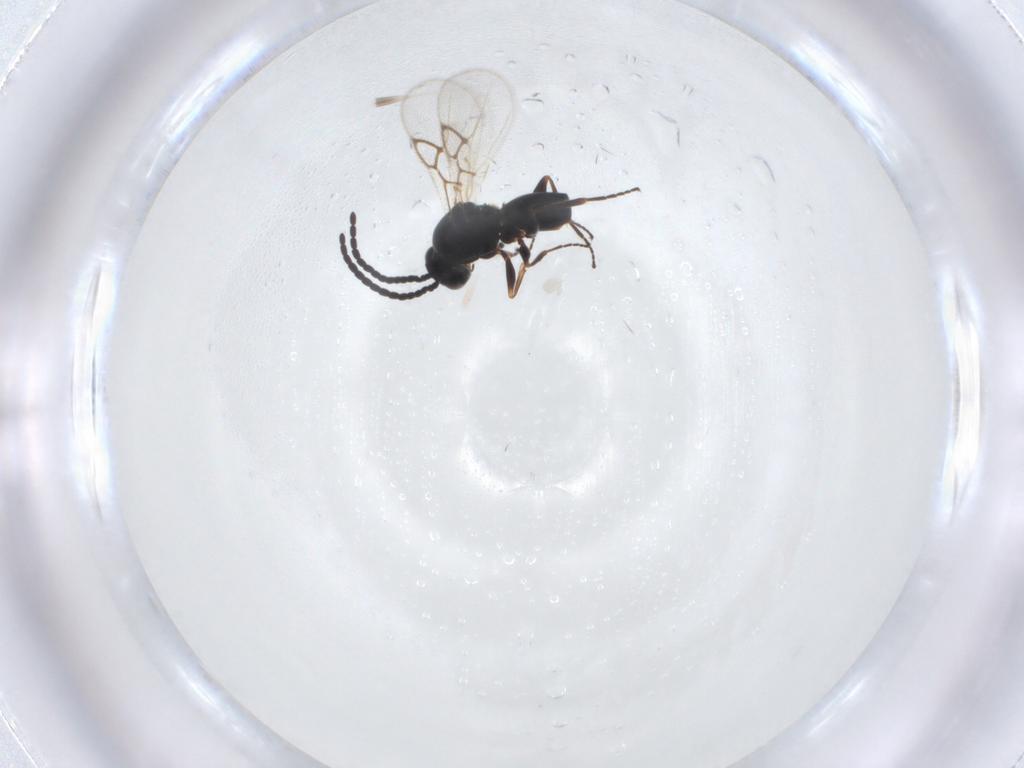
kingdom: Animalia
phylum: Arthropoda
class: Insecta
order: Hymenoptera
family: Figitidae
